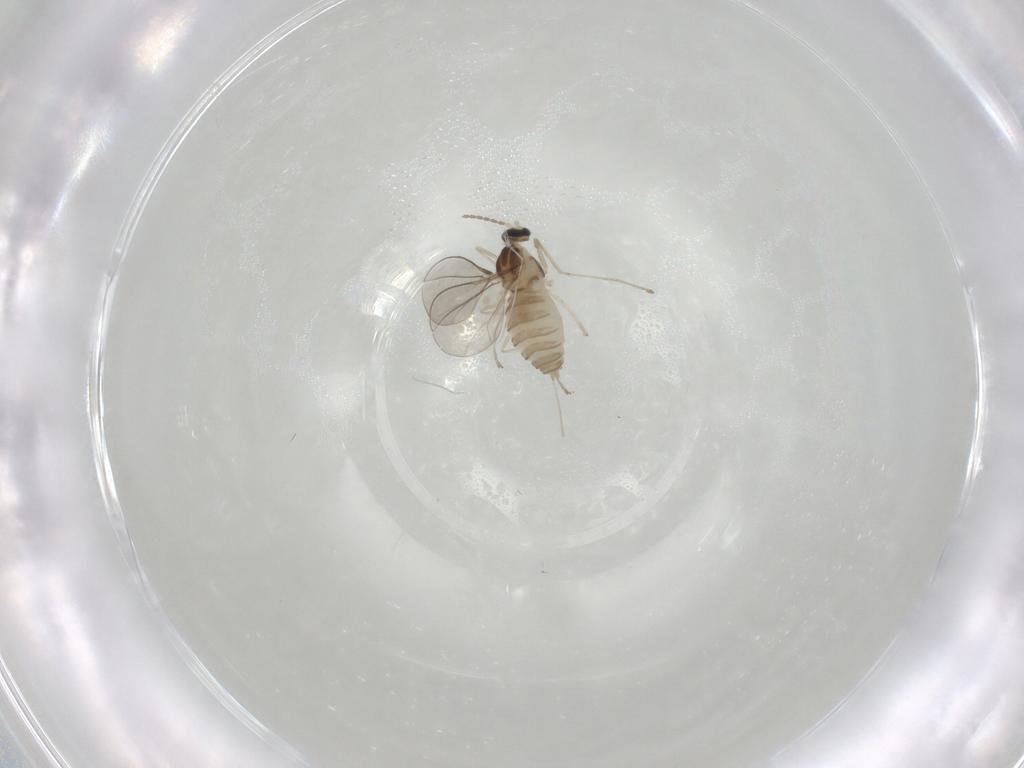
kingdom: Animalia
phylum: Arthropoda
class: Insecta
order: Diptera
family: Cecidomyiidae
